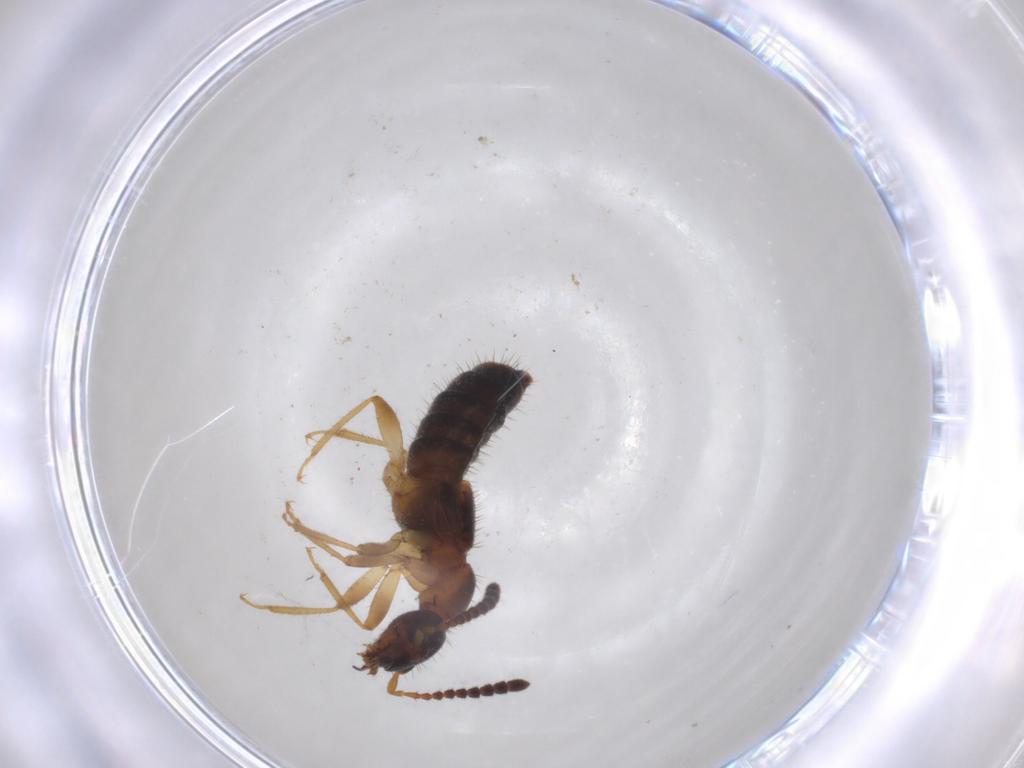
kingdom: Animalia
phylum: Arthropoda
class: Insecta
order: Coleoptera
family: Staphylinidae
